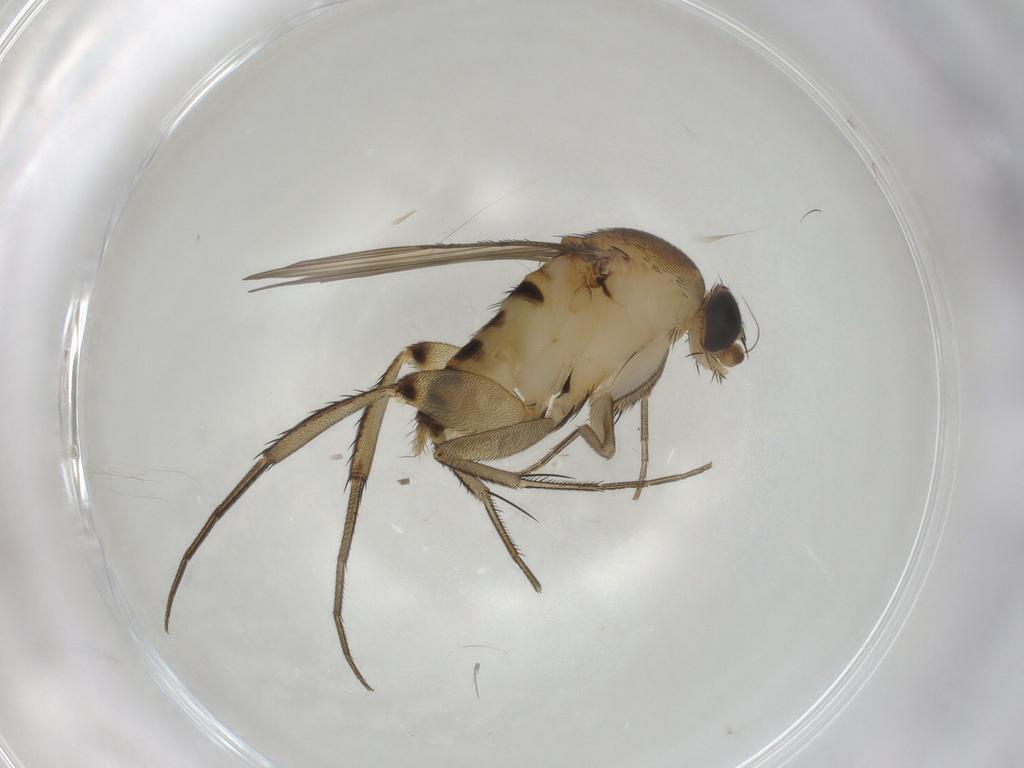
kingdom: Animalia
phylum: Arthropoda
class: Insecta
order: Diptera
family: Phoridae
